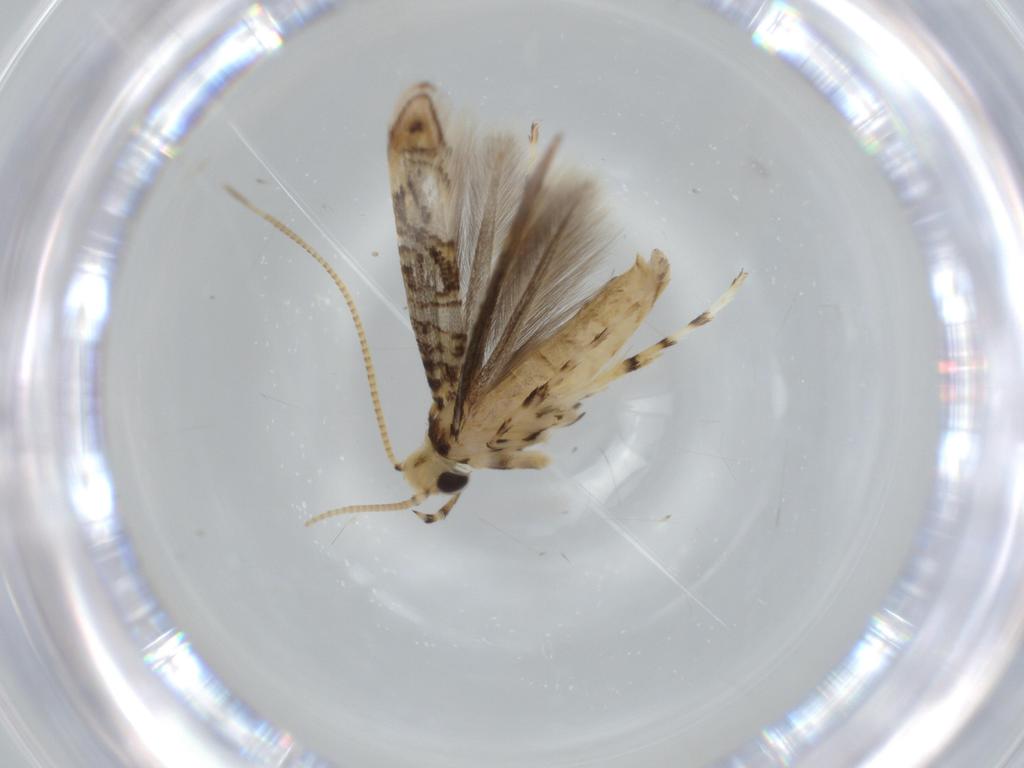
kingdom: Animalia
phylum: Arthropoda
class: Insecta
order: Lepidoptera
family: Gracillariidae
